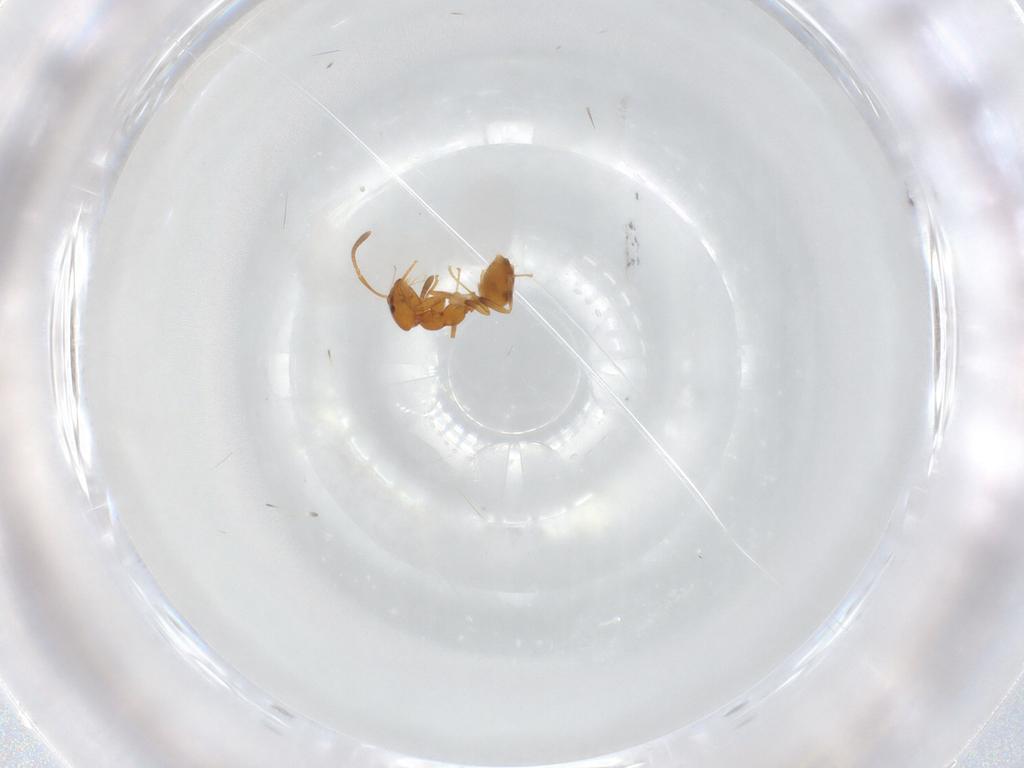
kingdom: Animalia
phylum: Arthropoda
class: Insecta
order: Hymenoptera
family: Formicidae
